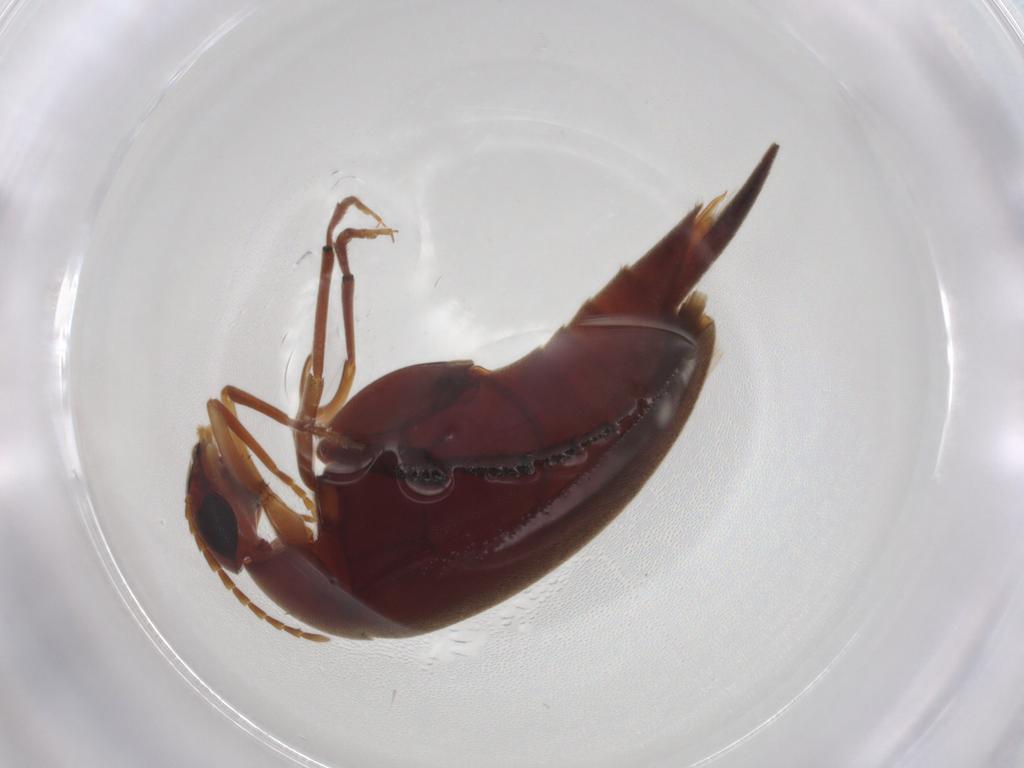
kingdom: Animalia
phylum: Arthropoda
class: Insecta
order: Coleoptera
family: Mordellidae
